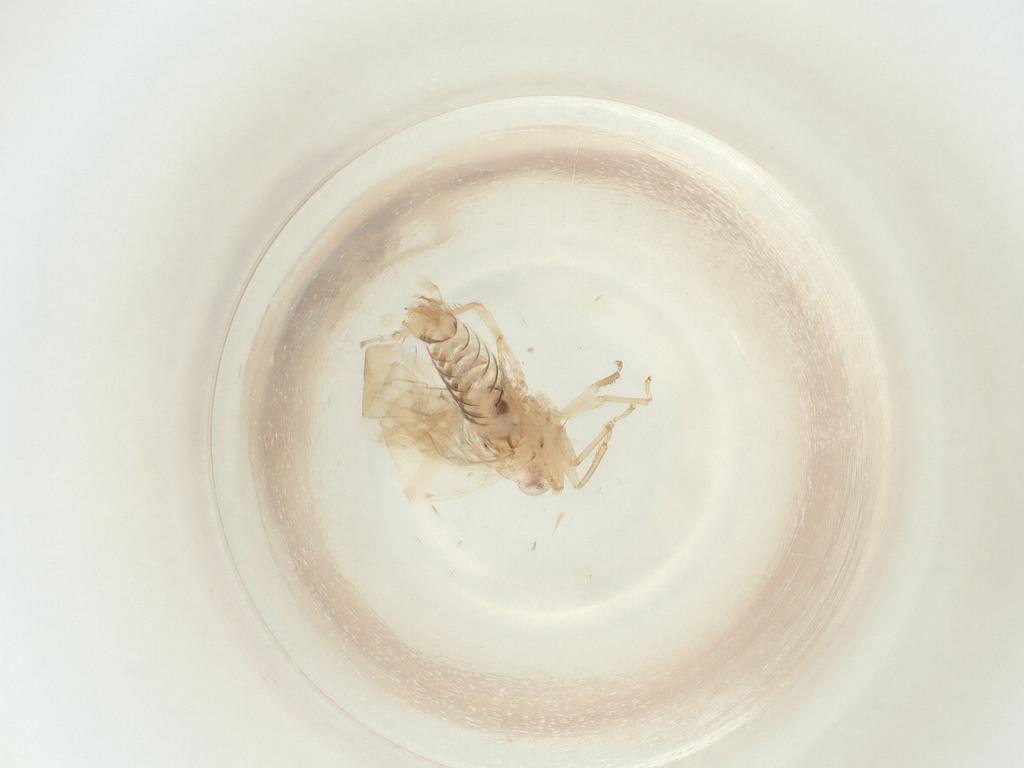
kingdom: Animalia
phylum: Arthropoda
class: Insecta
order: Hemiptera
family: Cicadellidae
